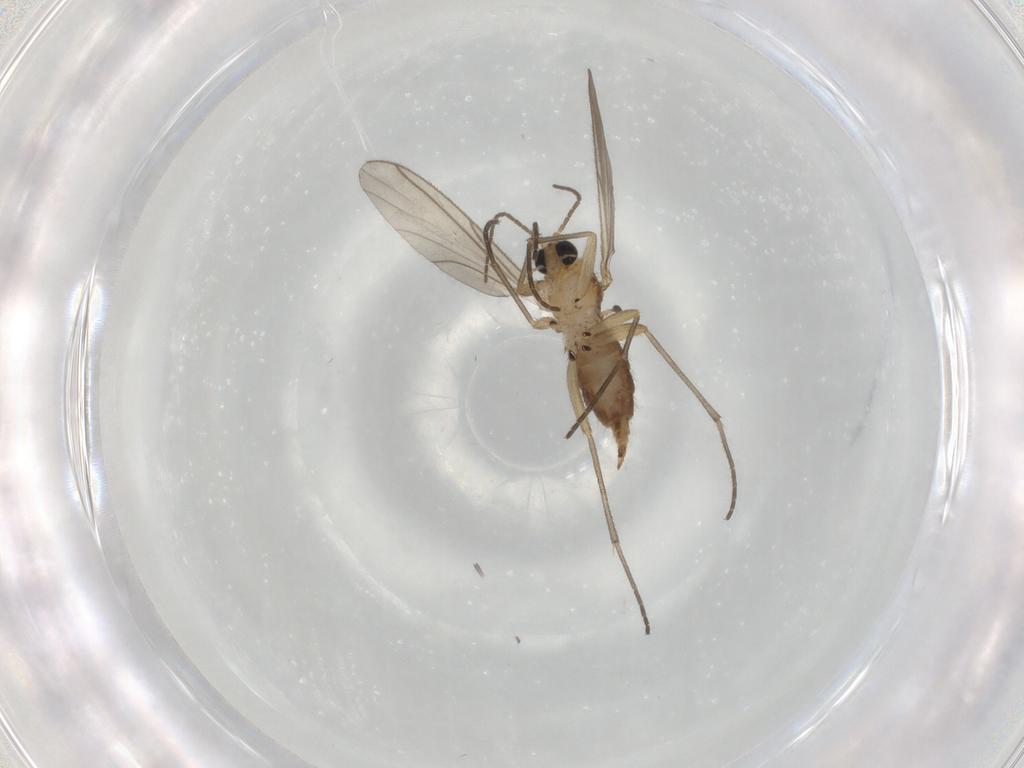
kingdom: Animalia
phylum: Arthropoda
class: Insecta
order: Diptera
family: Sciaridae
